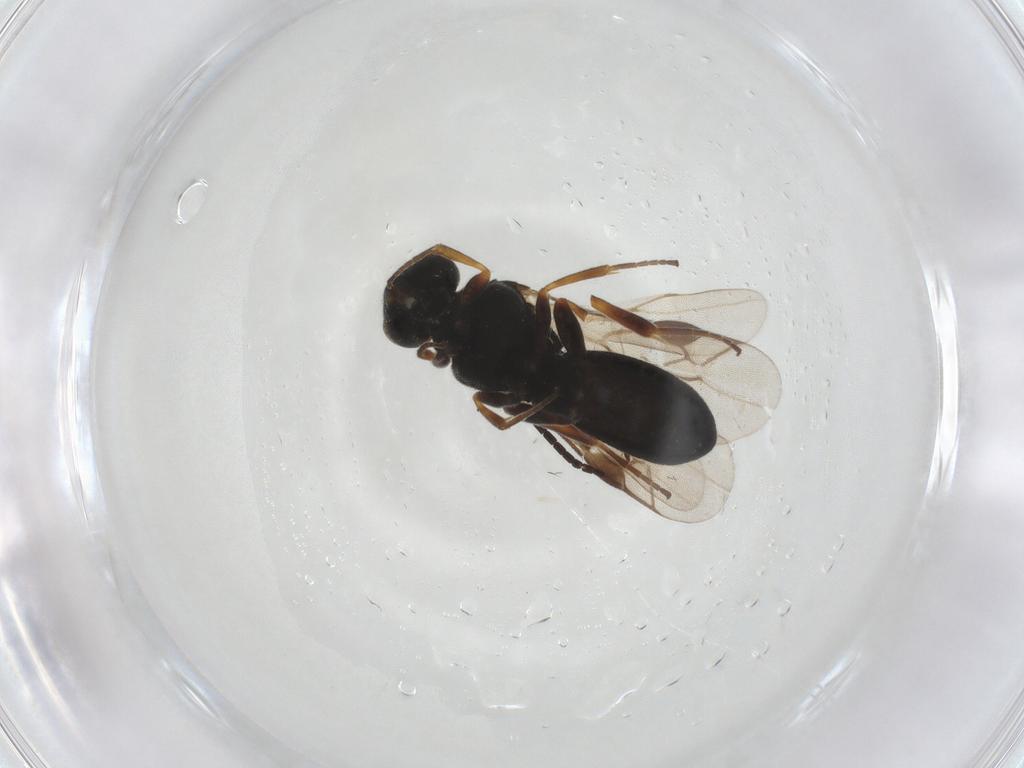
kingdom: Animalia
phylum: Arthropoda
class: Insecta
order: Hymenoptera
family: Braconidae
